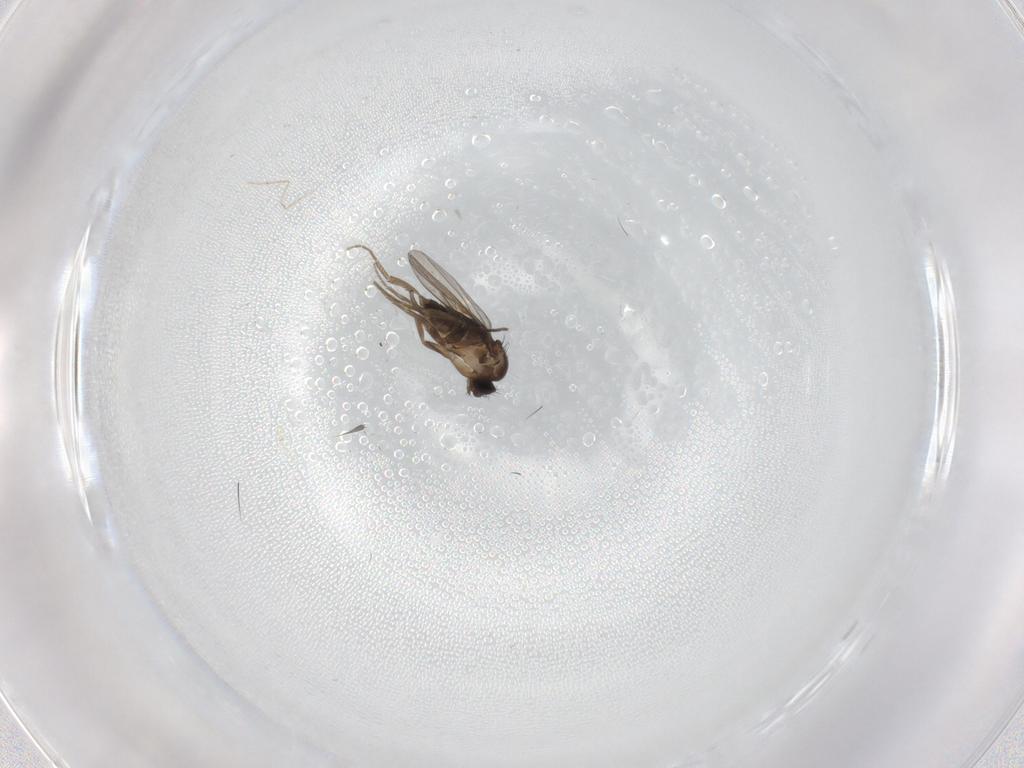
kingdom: Animalia
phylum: Arthropoda
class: Insecta
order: Diptera
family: Phoridae
